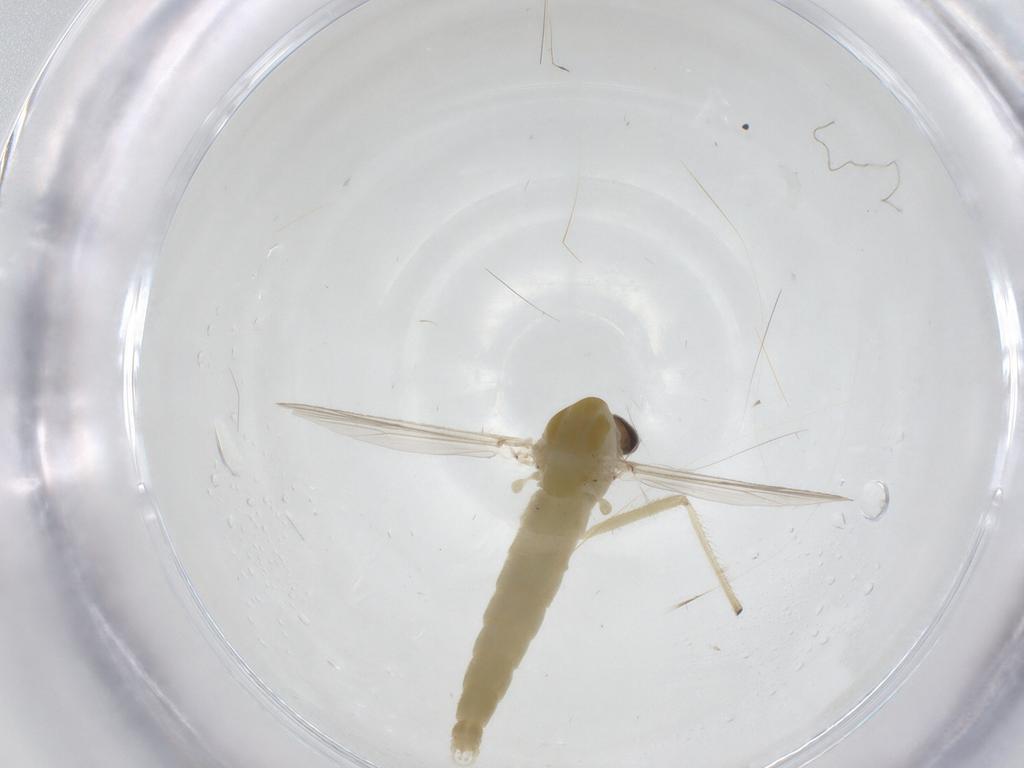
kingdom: Animalia
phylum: Arthropoda
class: Insecta
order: Diptera
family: Chironomidae
